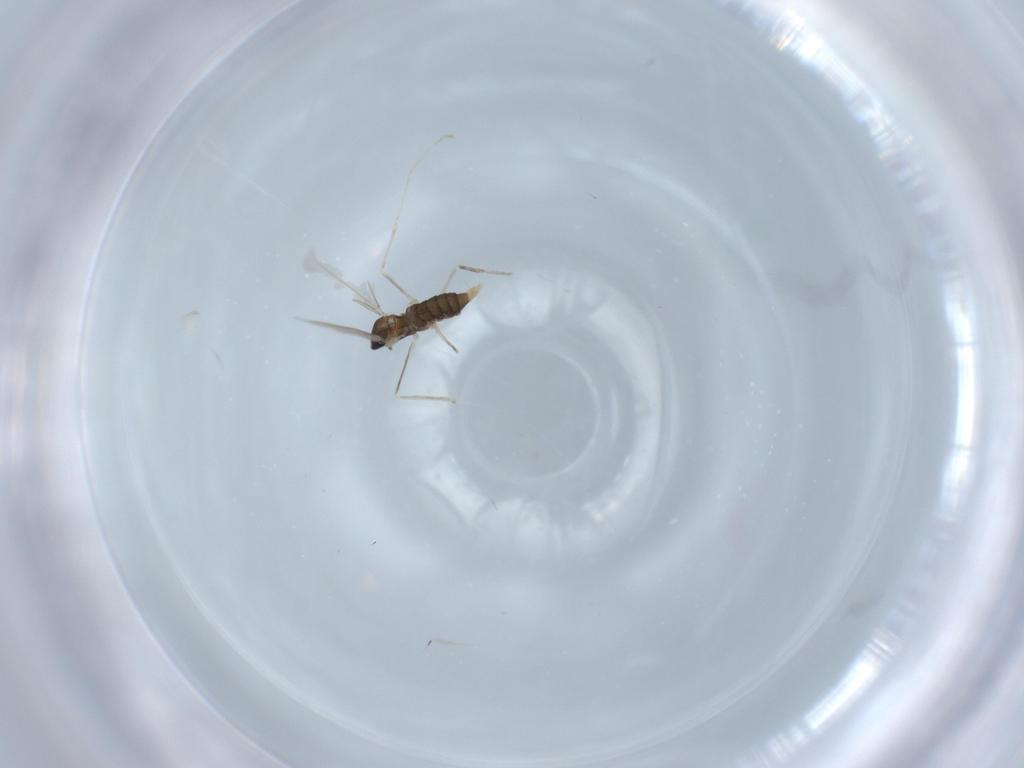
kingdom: Animalia
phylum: Arthropoda
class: Insecta
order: Diptera
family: Cecidomyiidae
